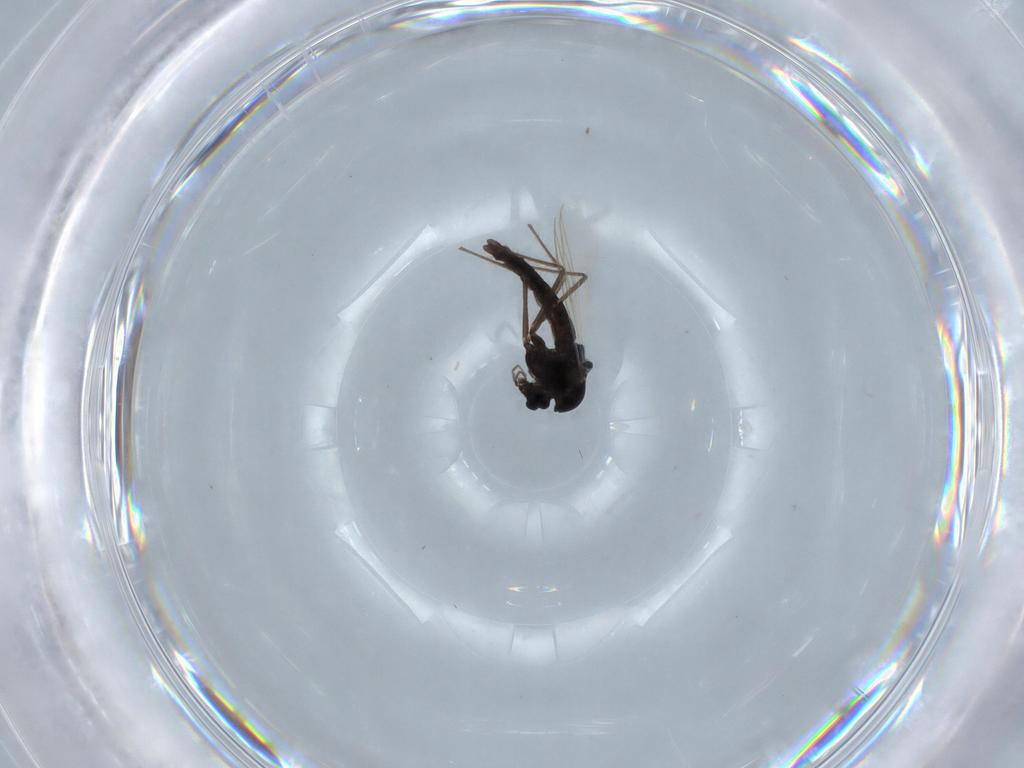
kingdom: Animalia
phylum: Arthropoda
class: Insecta
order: Diptera
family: Chironomidae
